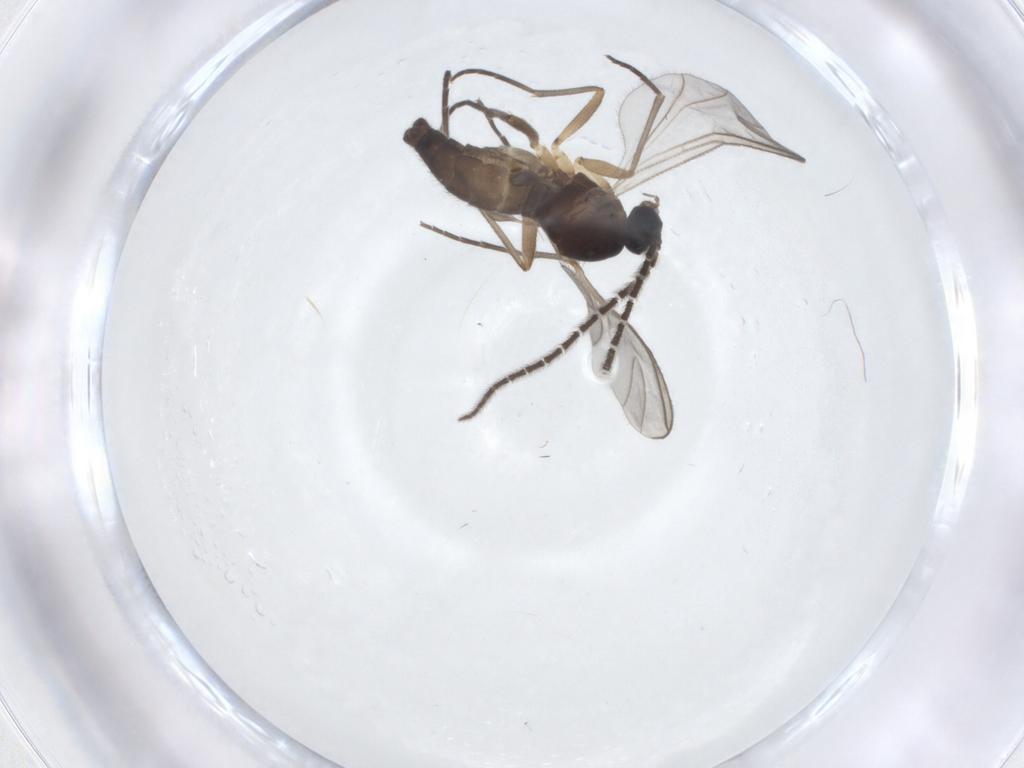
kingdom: Animalia
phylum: Arthropoda
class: Insecta
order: Diptera
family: Sciaridae
